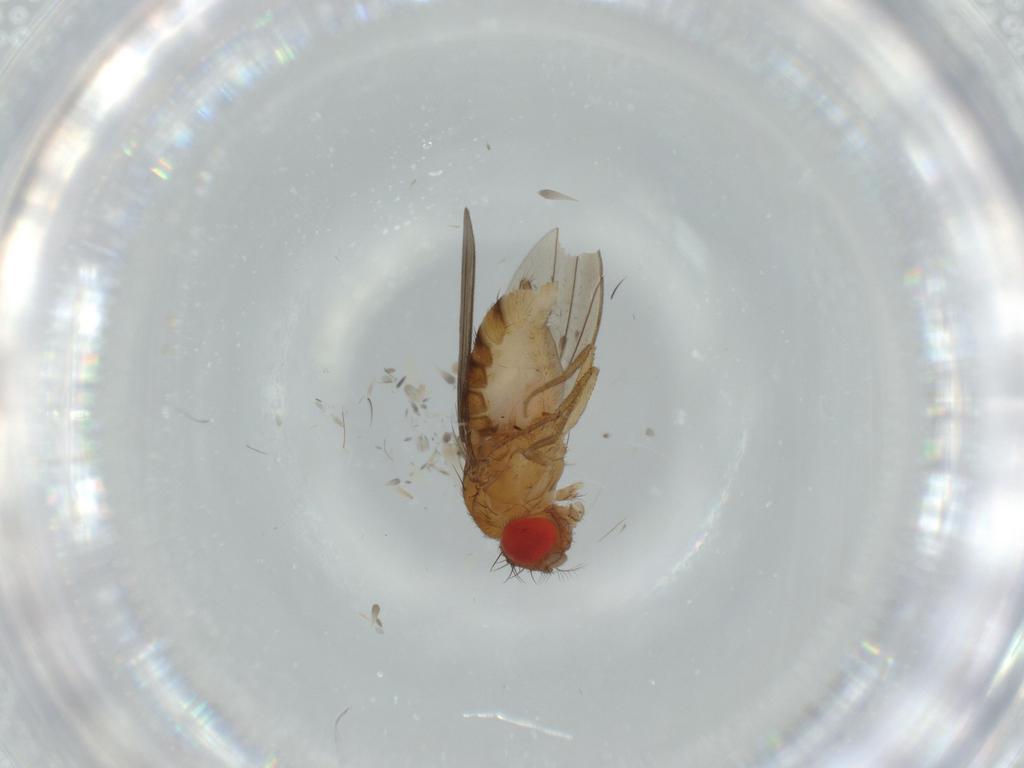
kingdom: Animalia
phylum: Arthropoda
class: Insecta
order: Diptera
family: Drosophilidae
